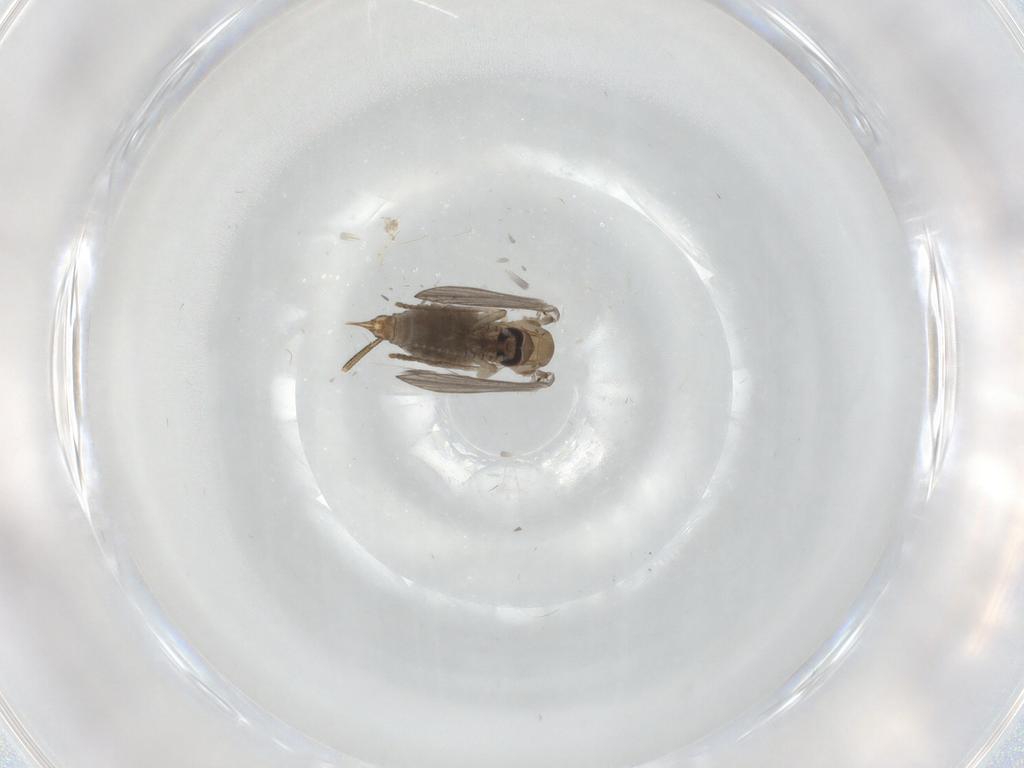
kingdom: Animalia
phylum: Arthropoda
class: Insecta
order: Diptera
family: Psychodidae
